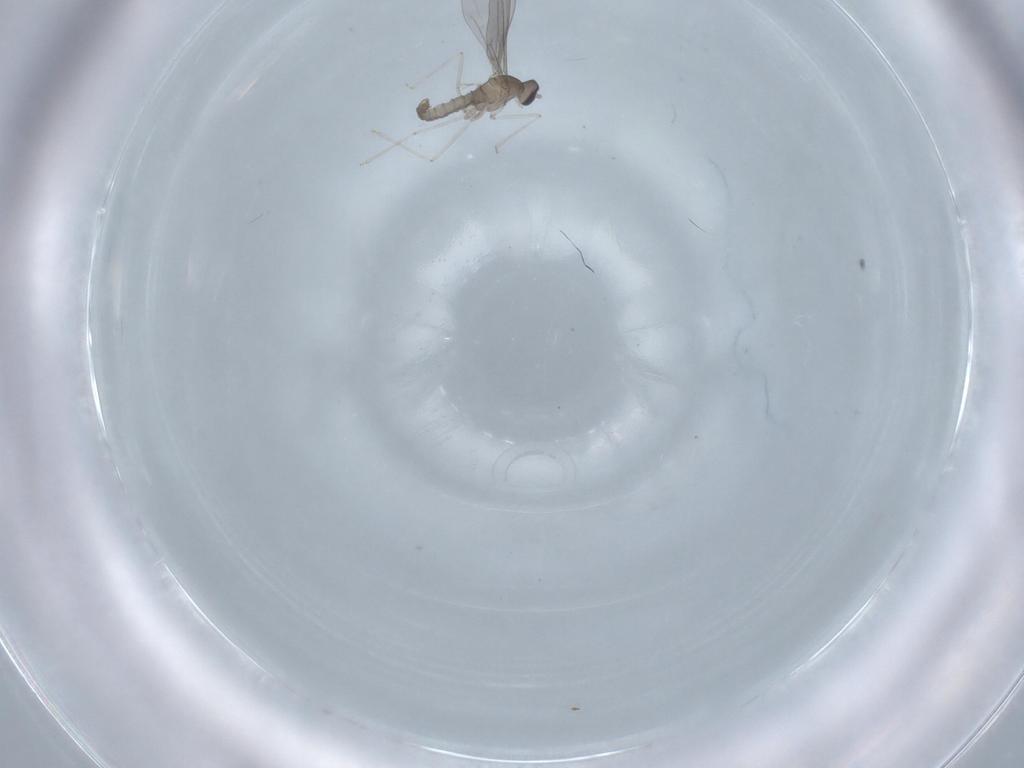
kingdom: Animalia
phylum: Arthropoda
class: Insecta
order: Diptera
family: Cecidomyiidae
